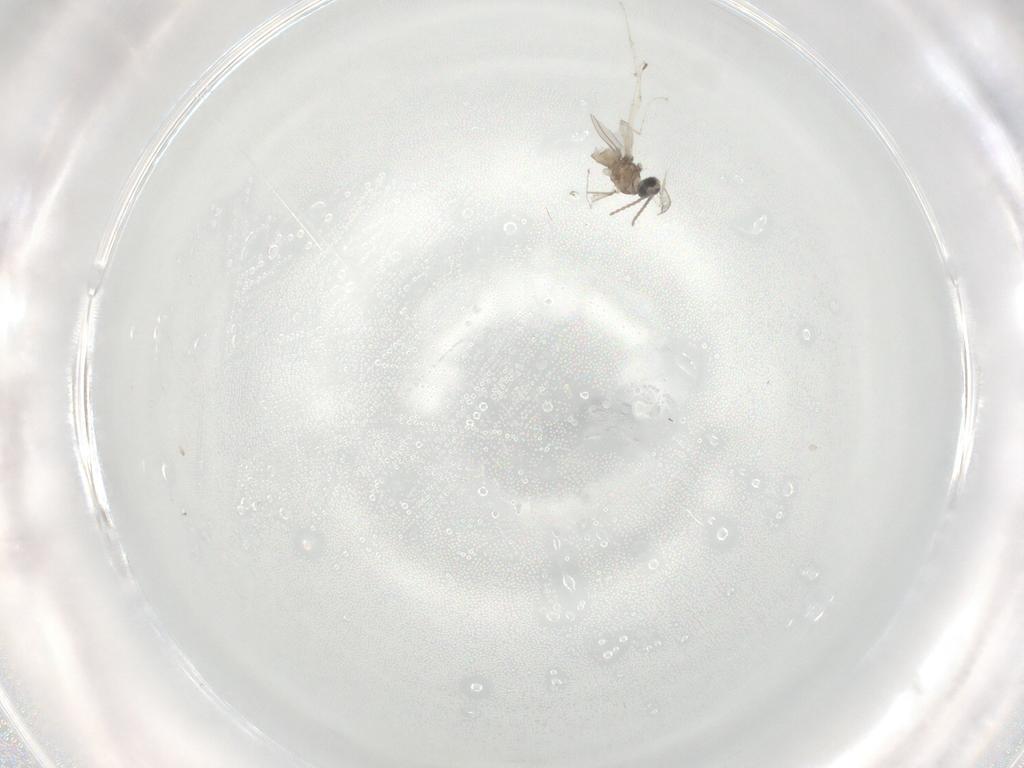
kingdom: Animalia
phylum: Arthropoda
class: Insecta
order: Diptera
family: Cecidomyiidae
